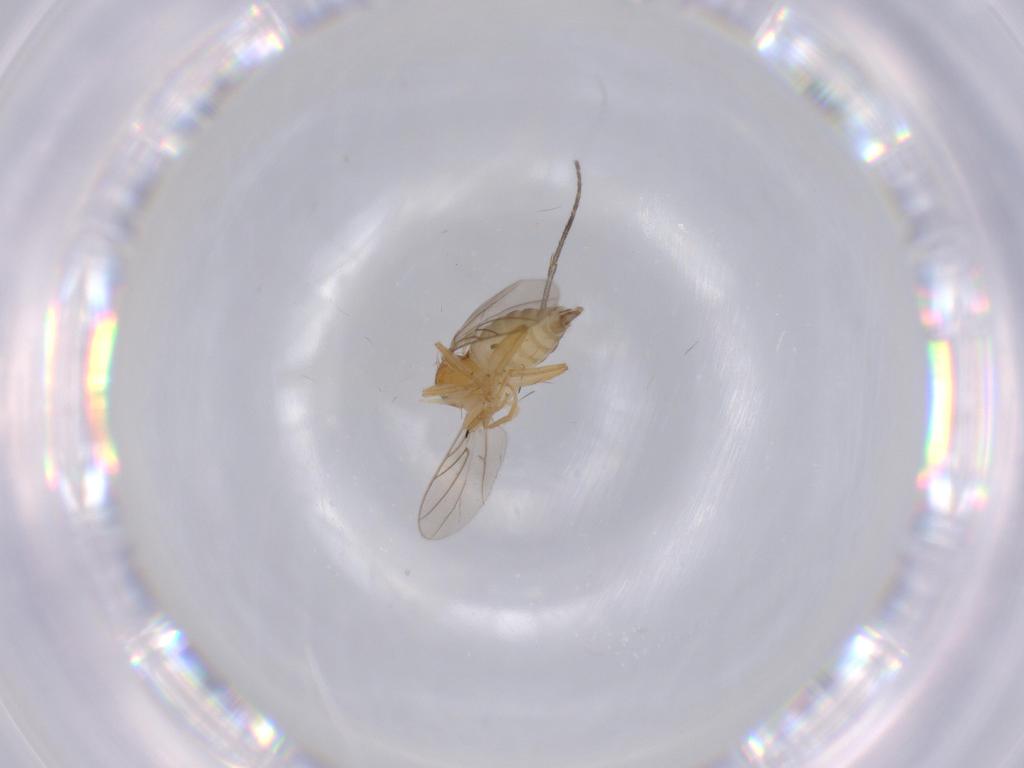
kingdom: Animalia
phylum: Arthropoda
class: Insecta
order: Diptera
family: Sciaridae
